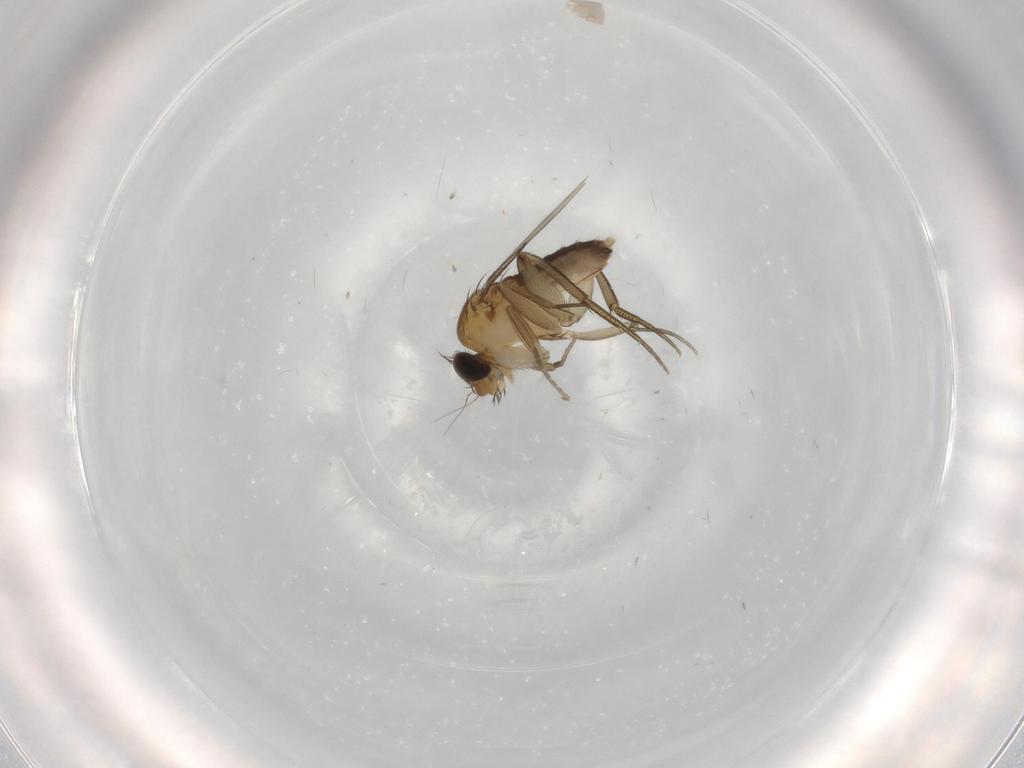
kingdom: Animalia
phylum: Arthropoda
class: Insecta
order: Diptera
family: Phoridae
